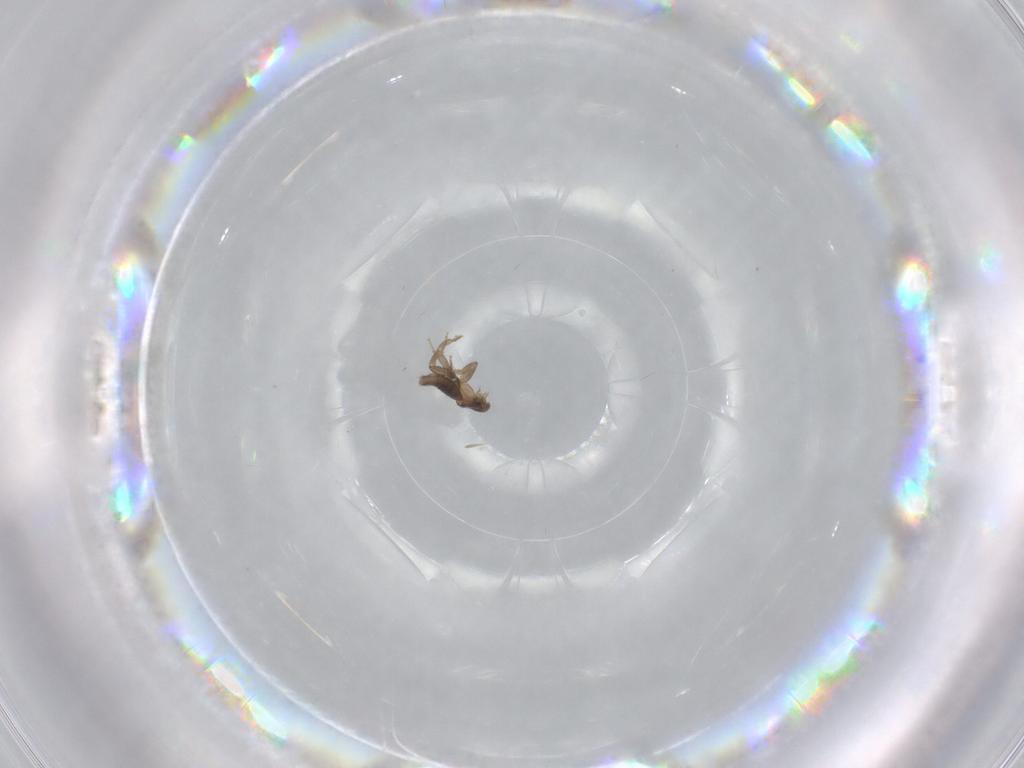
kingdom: Animalia
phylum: Arthropoda
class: Insecta
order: Diptera
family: Ceratopogonidae
